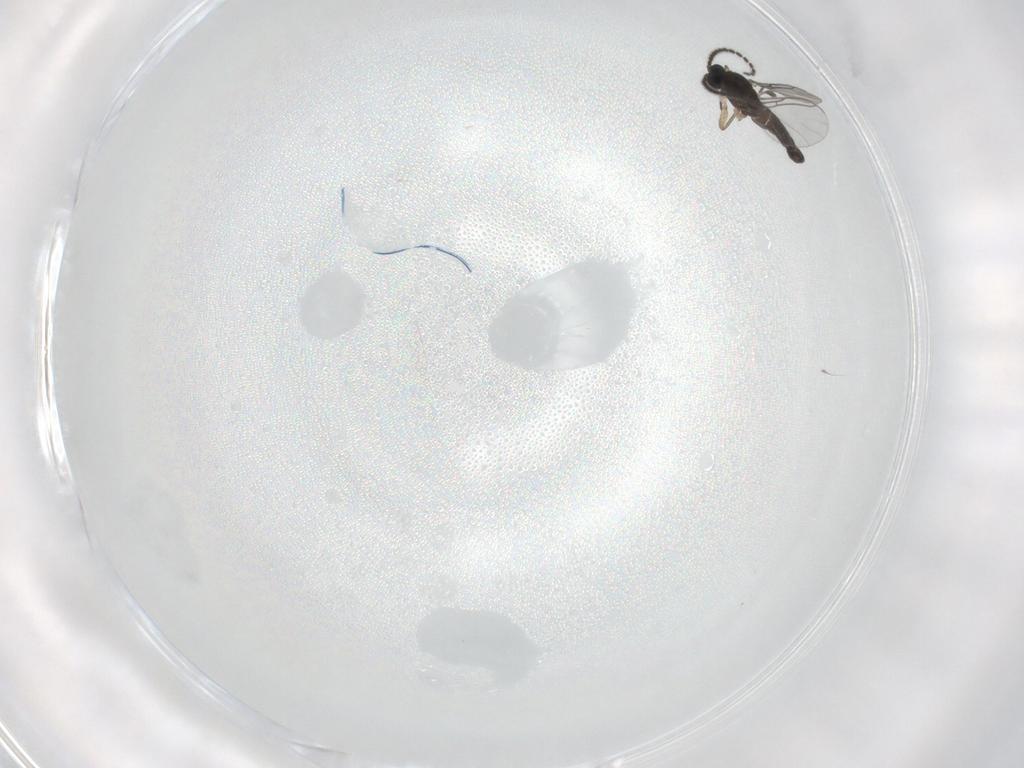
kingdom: Animalia
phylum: Arthropoda
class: Insecta
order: Diptera
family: Sciaridae
